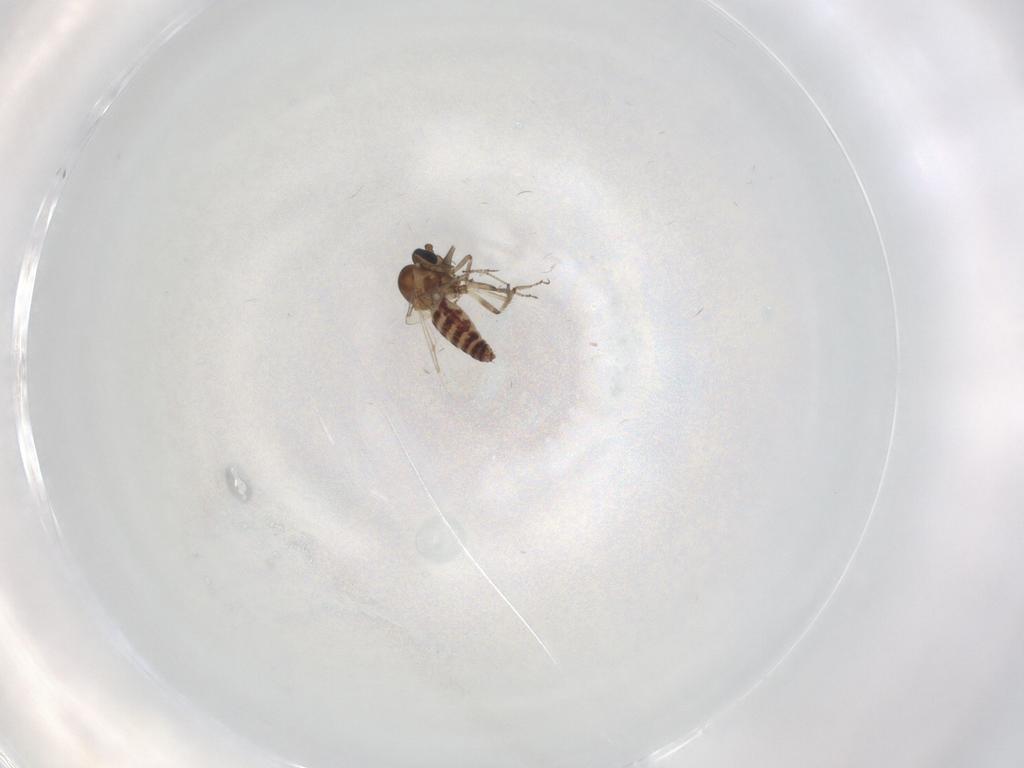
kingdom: Animalia
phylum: Arthropoda
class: Insecta
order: Diptera
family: Ceratopogonidae
